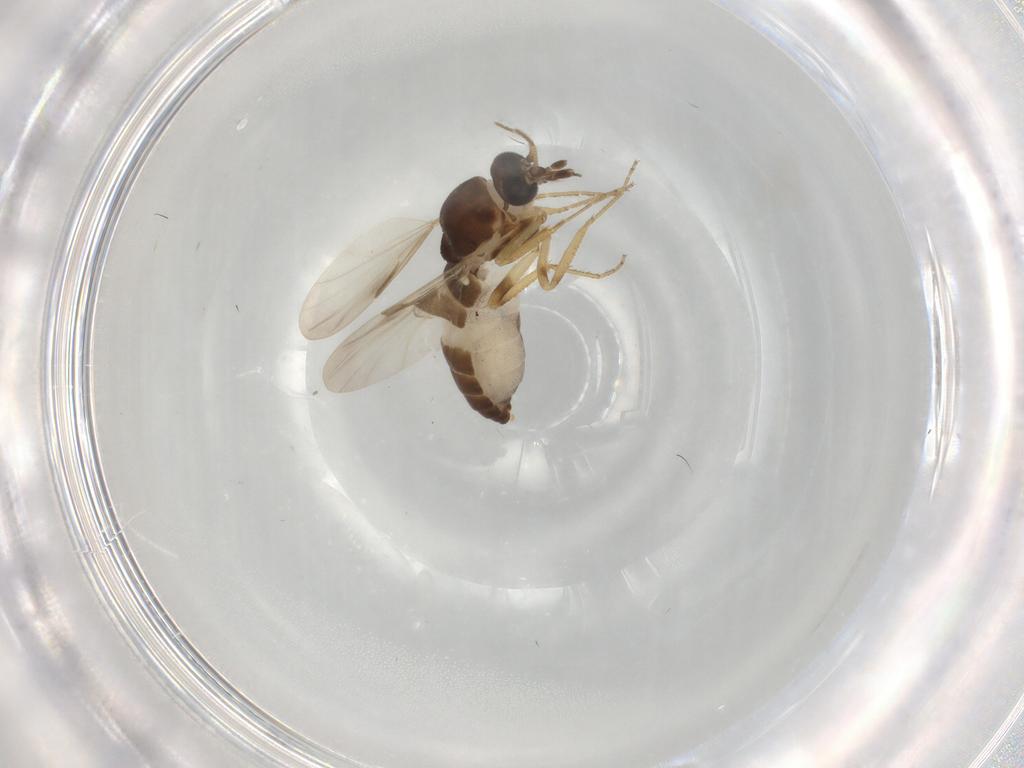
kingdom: Animalia
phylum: Arthropoda
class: Insecta
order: Diptera
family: Ceratopogonidae
